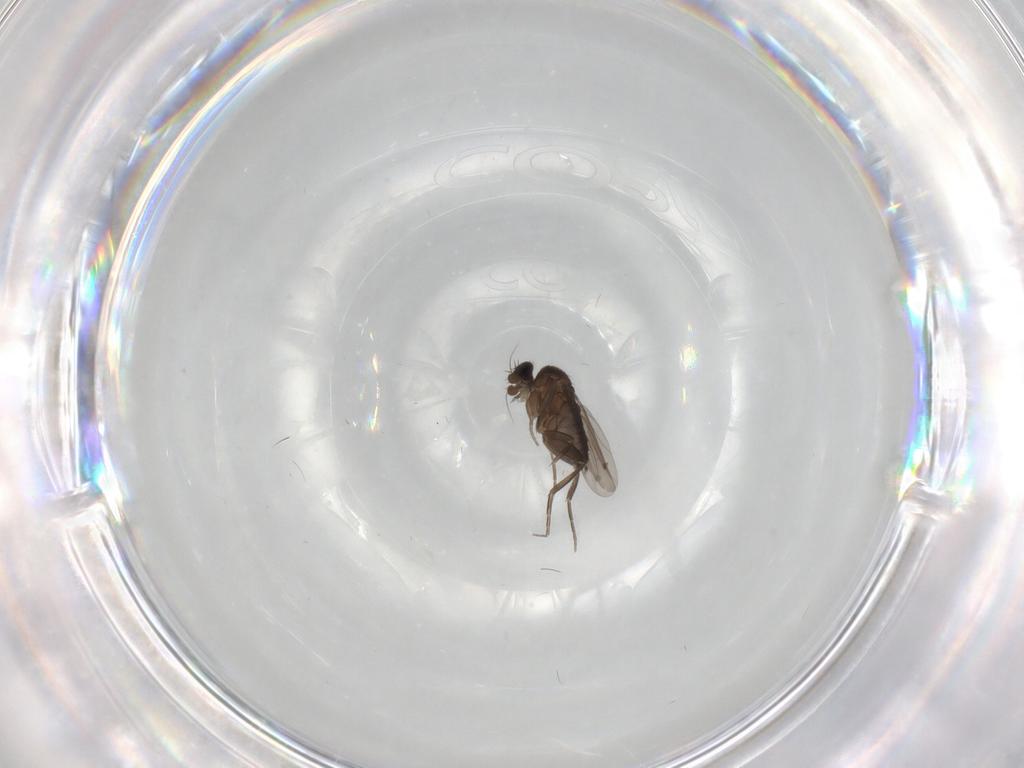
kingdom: Animalia
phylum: Arthropoda
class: Insecta
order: Diptera
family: Phoridae
